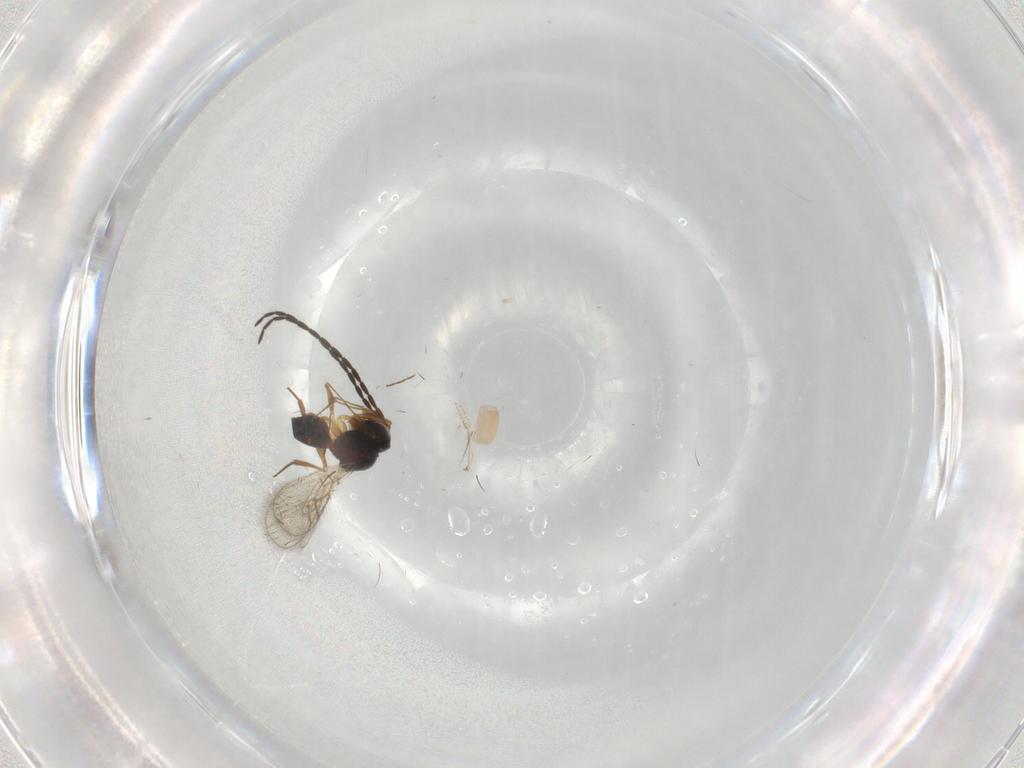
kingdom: Animalia
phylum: Arthropoda
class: Insecta
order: Hymenoptera
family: Figitidae
